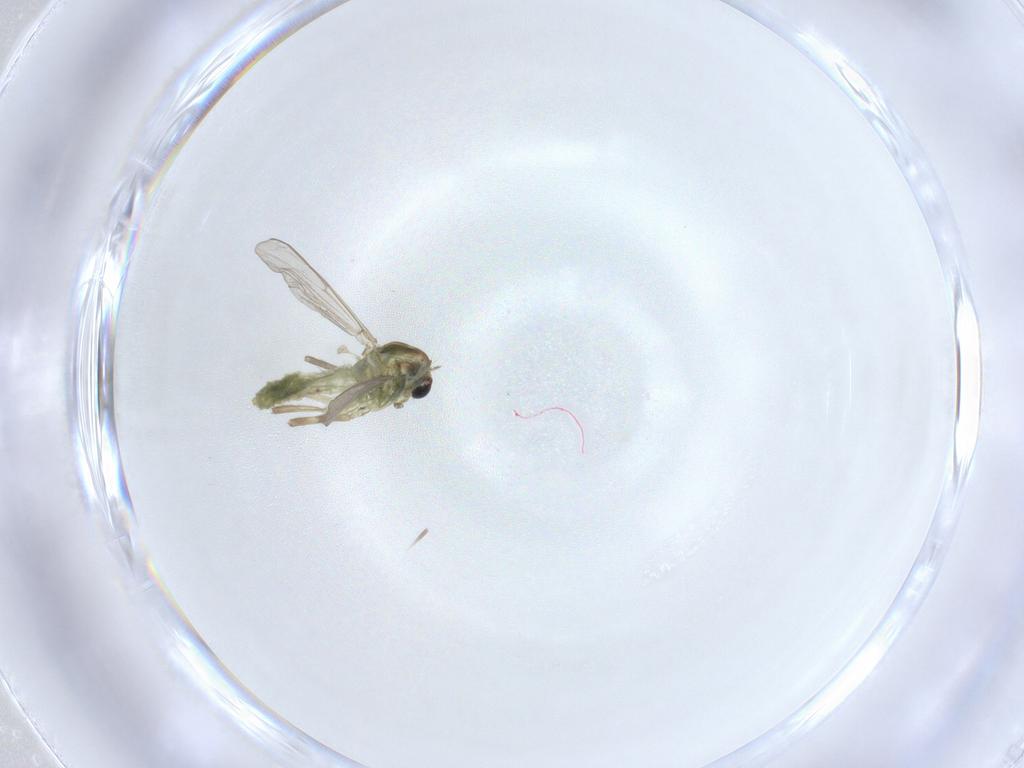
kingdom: Animalia
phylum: Arthropoda
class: Insecta
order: Diptera
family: Chironomidae
